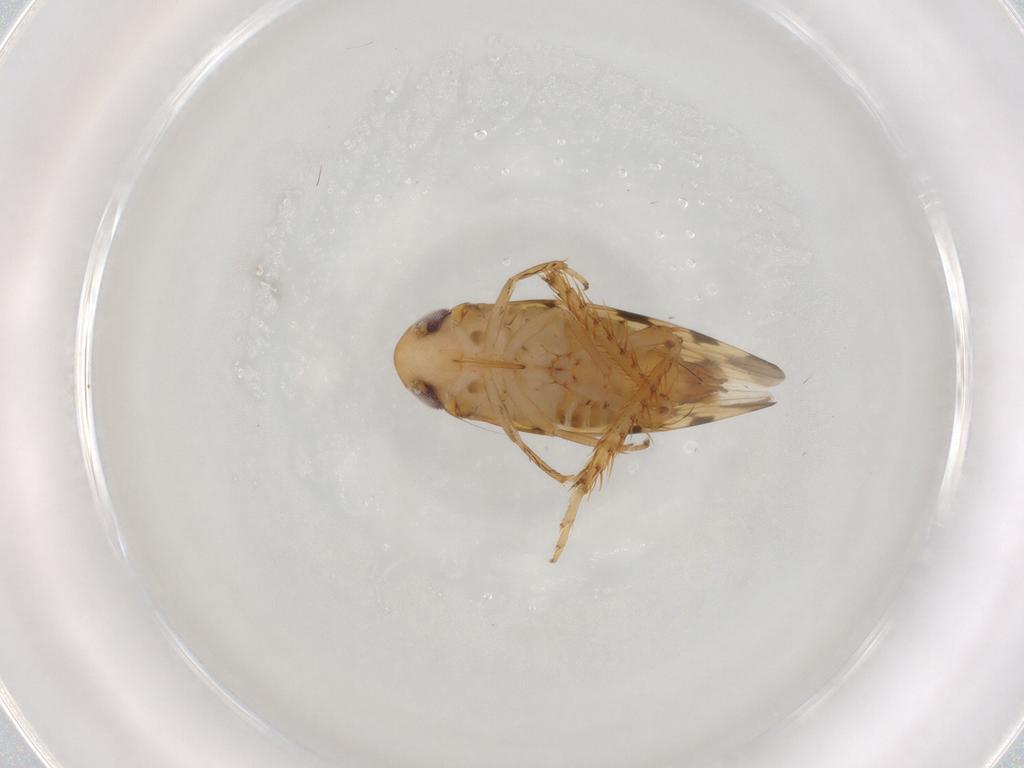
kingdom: Animalia
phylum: Arthropoda
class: Insecta
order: Hemiptera
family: Cicadellidae
